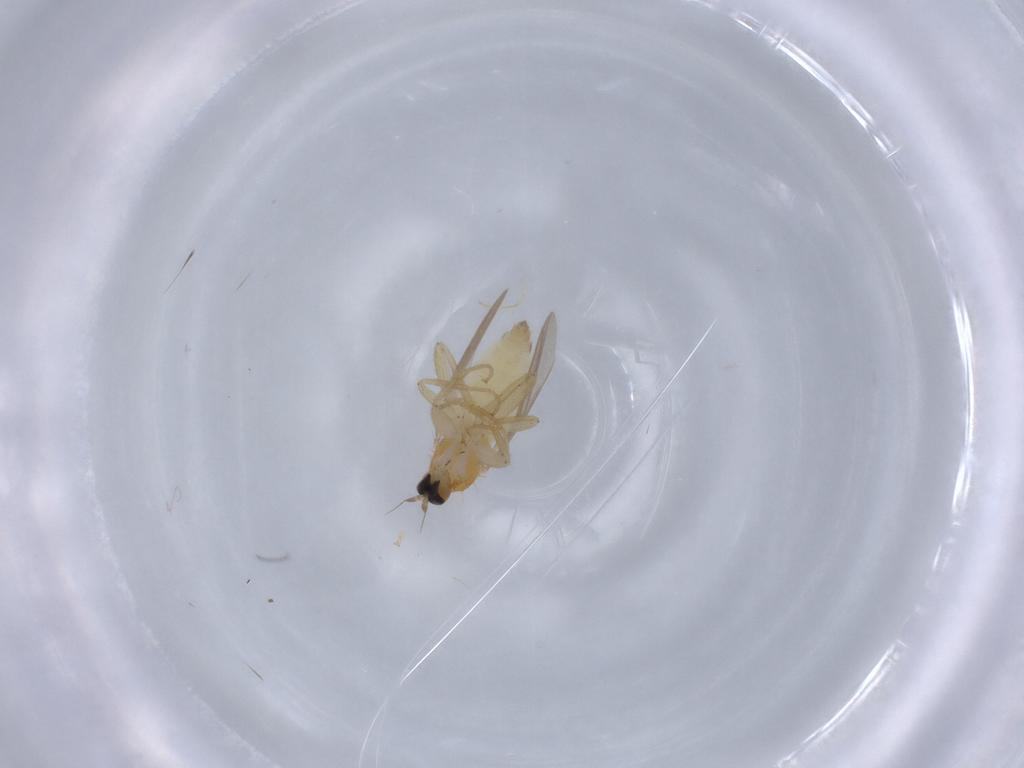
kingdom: Animalia
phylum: Arthropoda
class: Insecta
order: Diptera
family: Hybotidae
